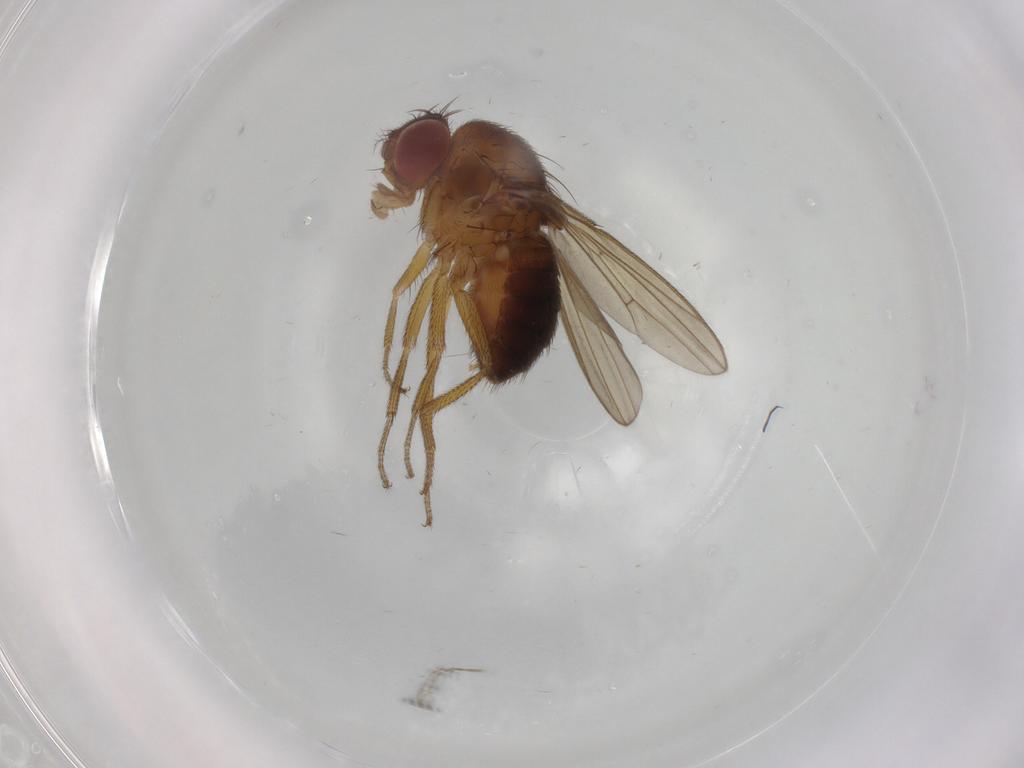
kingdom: Animalia
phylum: Arthropoda
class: Insecta
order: Diptera
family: Drosophilidae
